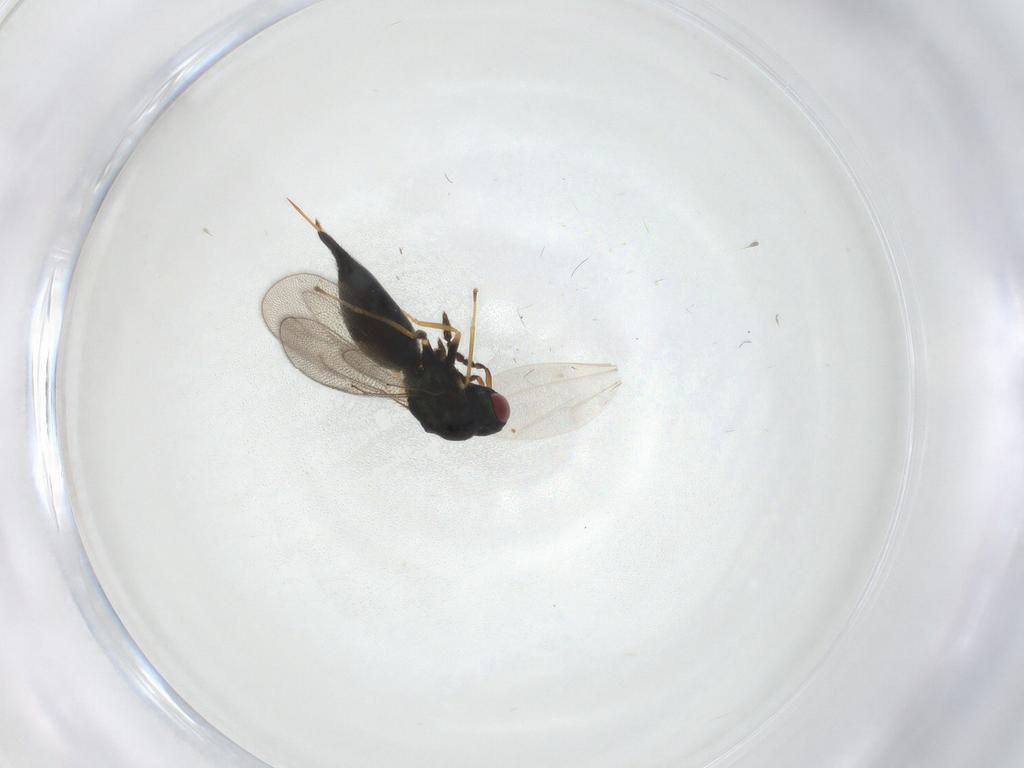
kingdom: Animalia
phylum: Arthropoda
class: Insecta
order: Hymenoptera
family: Eulophidae
